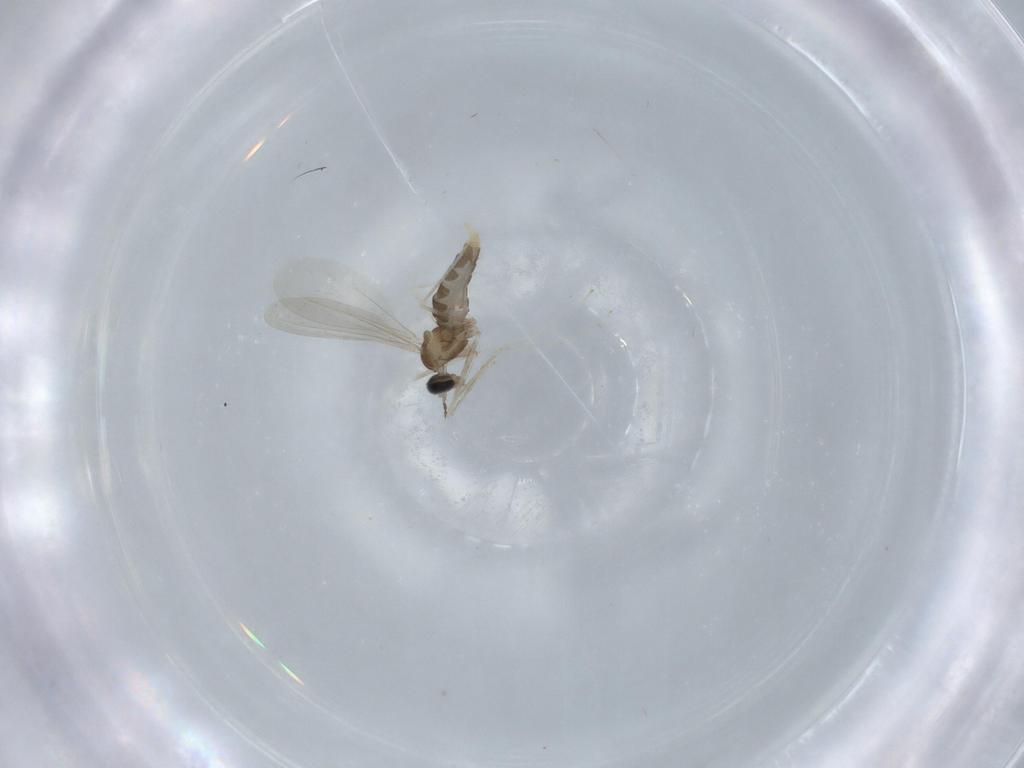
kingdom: Animalia
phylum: Arthropoda
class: Insecta
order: Diptera
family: Cecidomyiidae
